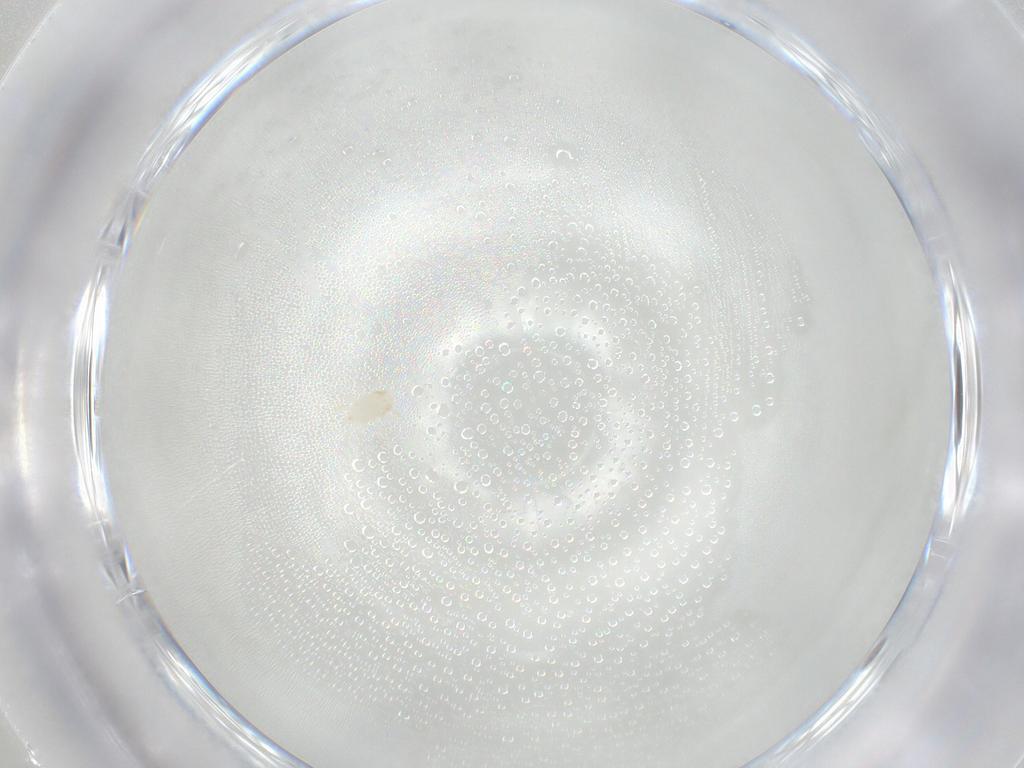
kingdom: Animalia
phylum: Arthropoda
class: Arachnida
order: Mesostigmata
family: Phytoseiidae
